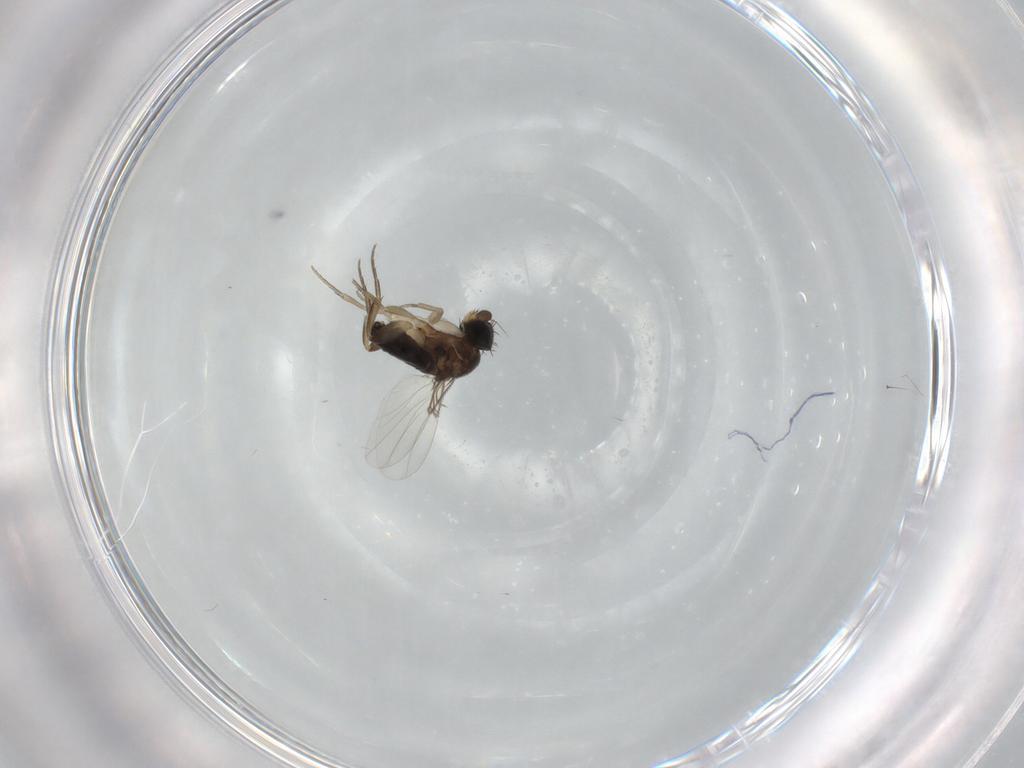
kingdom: Animalia
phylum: Arthropoda
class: Insecta
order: Diptera
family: Phoridae
